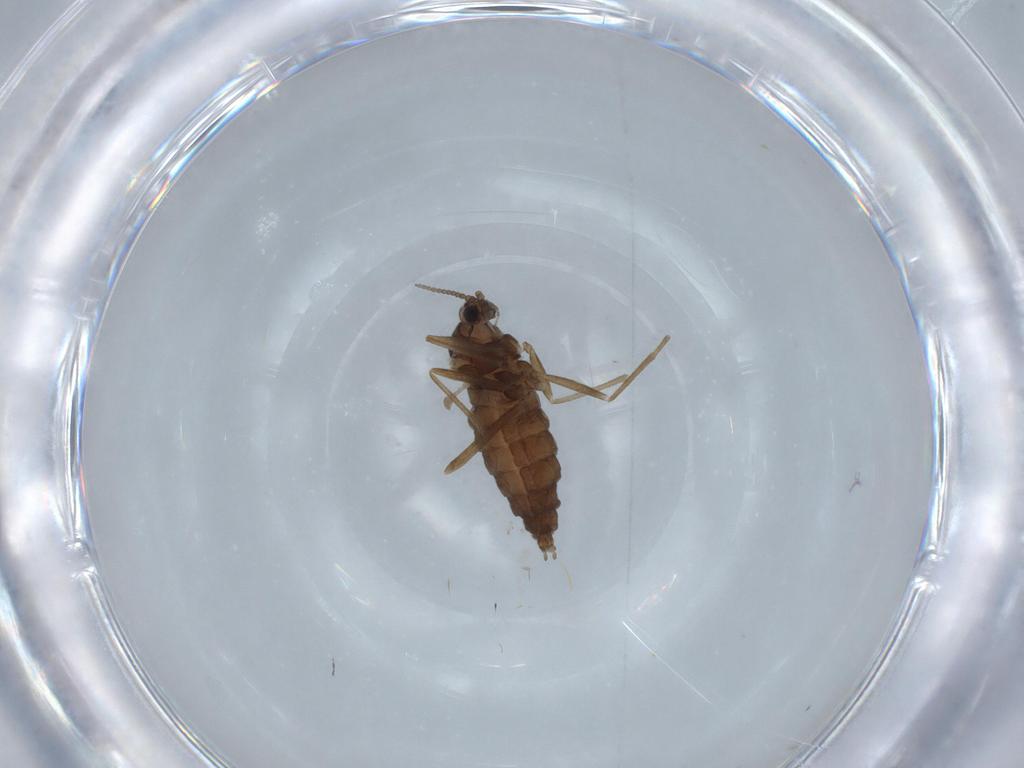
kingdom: Animalia
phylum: Arthropoda
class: Insecta
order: Diptera
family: Cecidomyiidae
